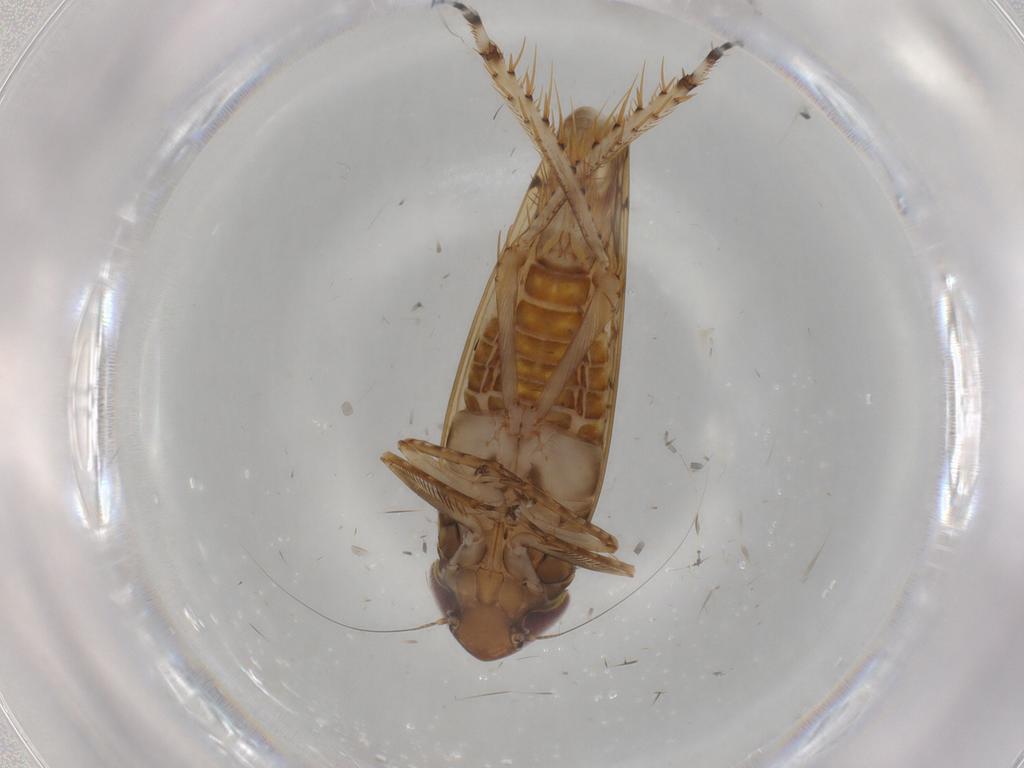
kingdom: Animalia
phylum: Arthropoda
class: Insecta
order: Hemiptera
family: Cicadellidae
